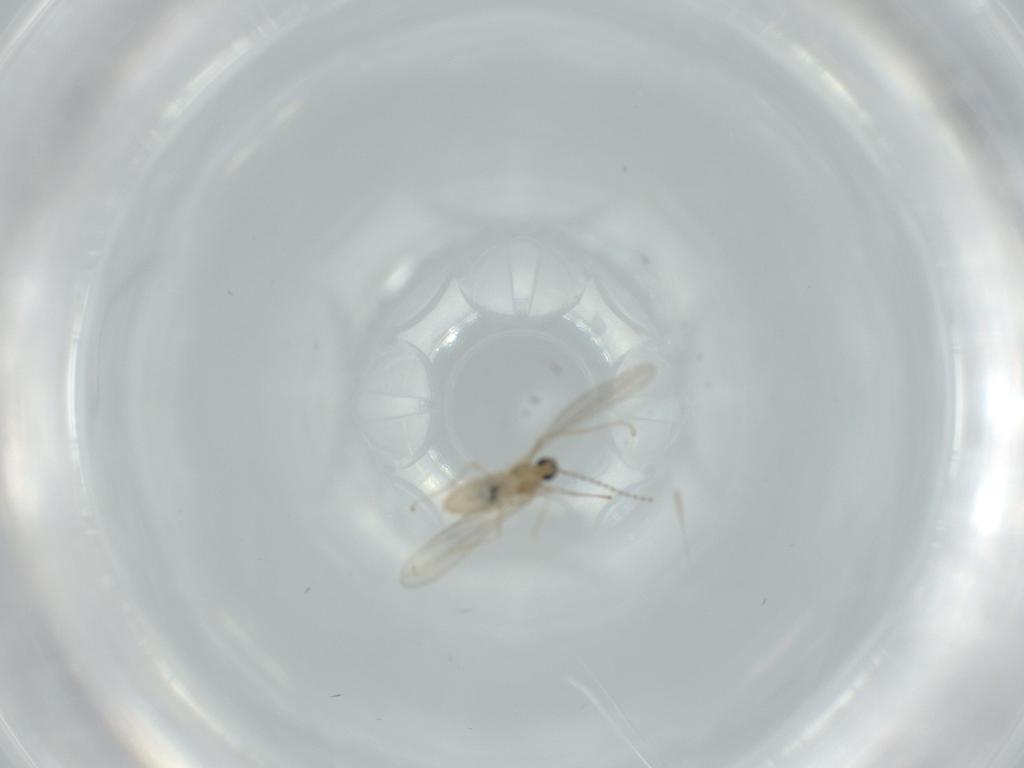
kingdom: Animalia
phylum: Arthropoda
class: Insecta
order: Diptera
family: Cecidomyiidae
